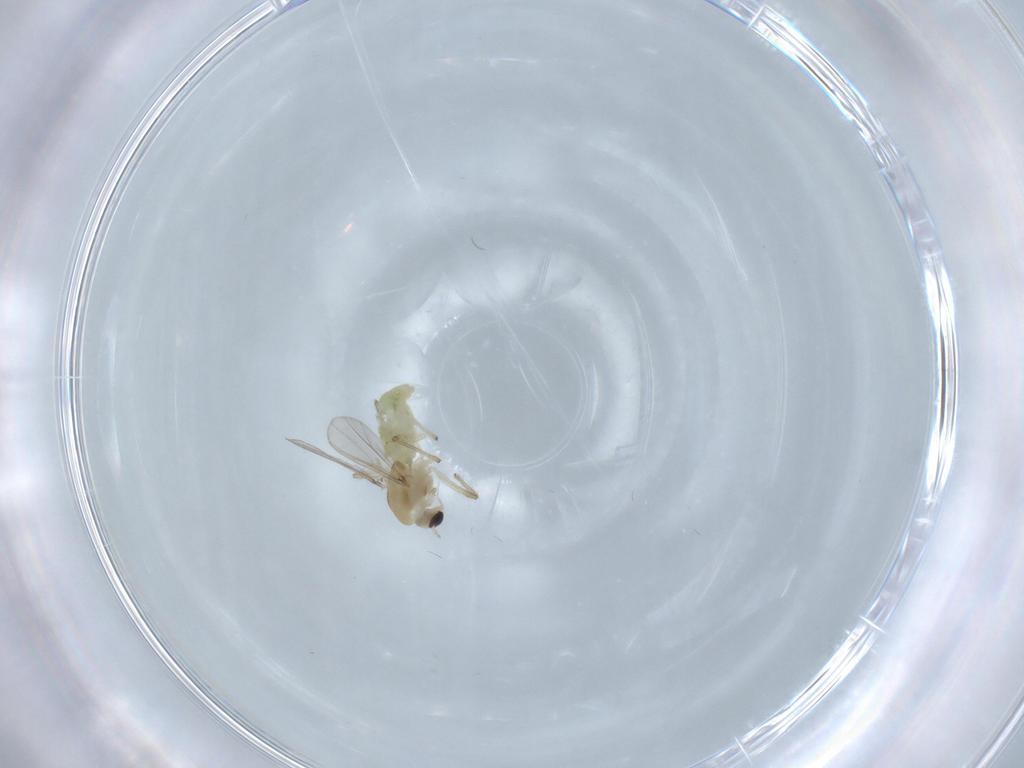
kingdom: Animalia
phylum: Arthropoda
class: Insecta
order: Diptera
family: Chironomidae
